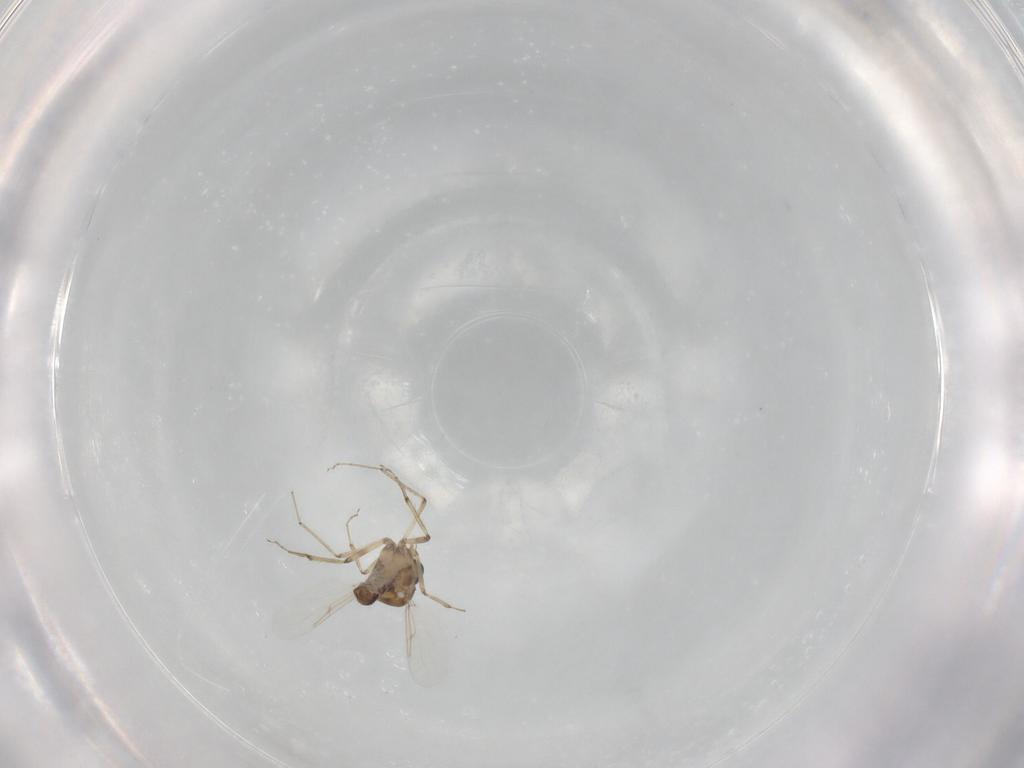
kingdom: Animalia
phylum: Arthropoda
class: Insecta
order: Diptera
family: Ceratopogonidae
